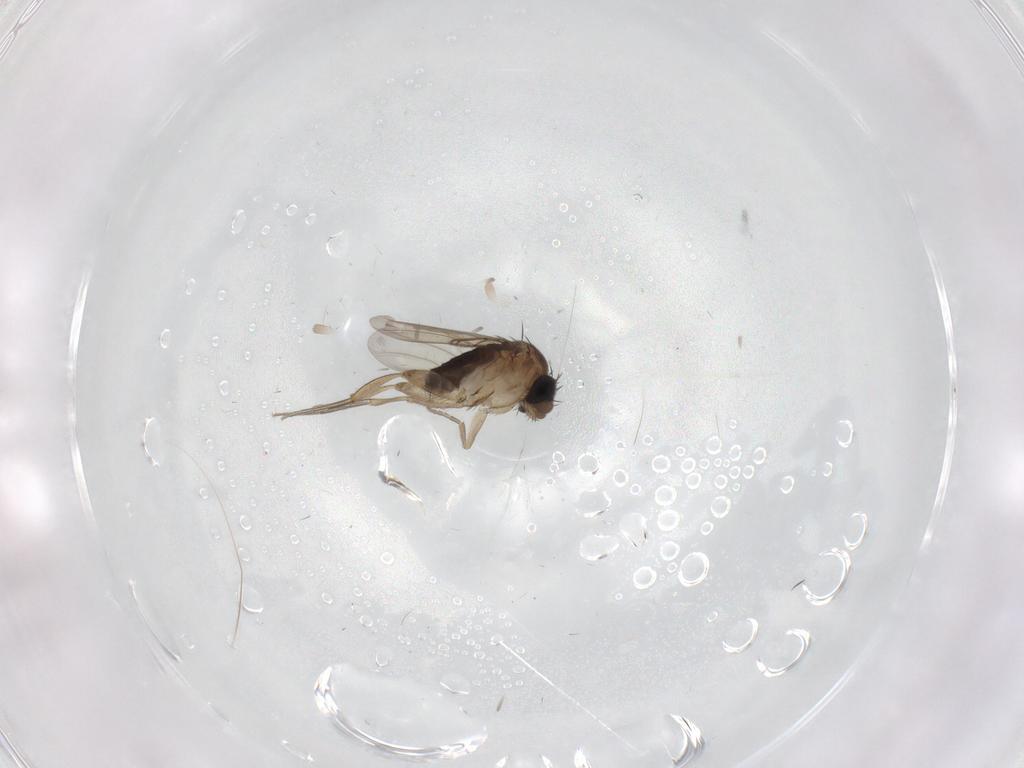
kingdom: Animalia
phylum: Arthropoda
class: Insecta
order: Diptera
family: Phoridae
